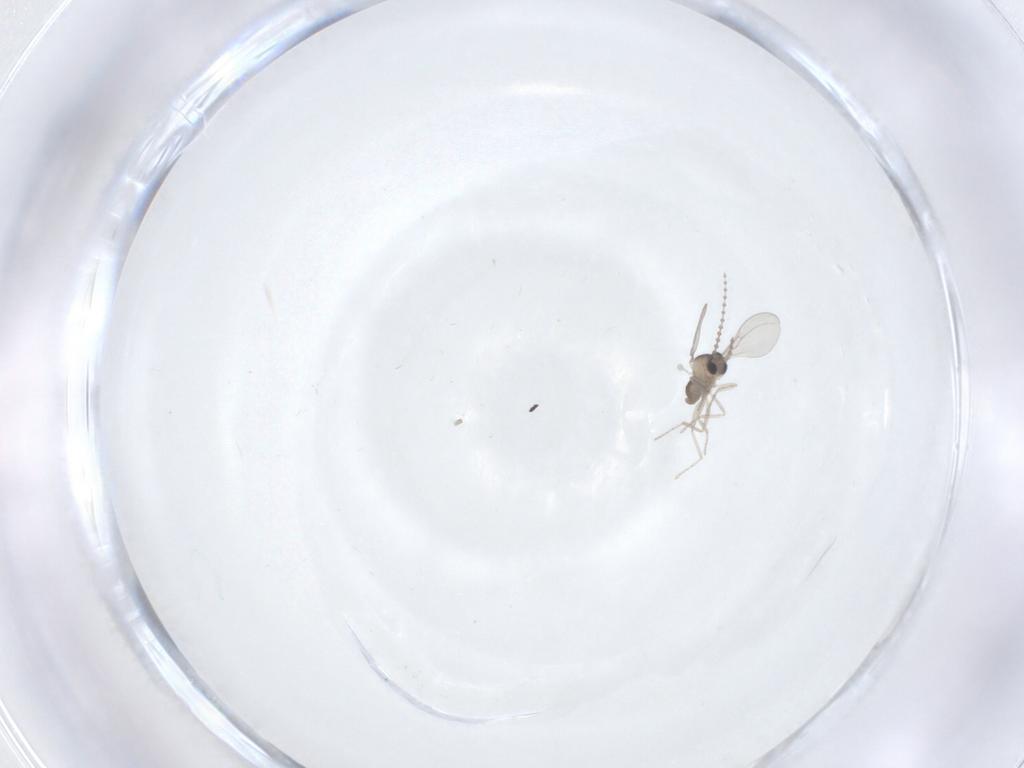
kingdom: Animalia
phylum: Arthropoda
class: Insecta
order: Diptera
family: Cecidomyiidae
